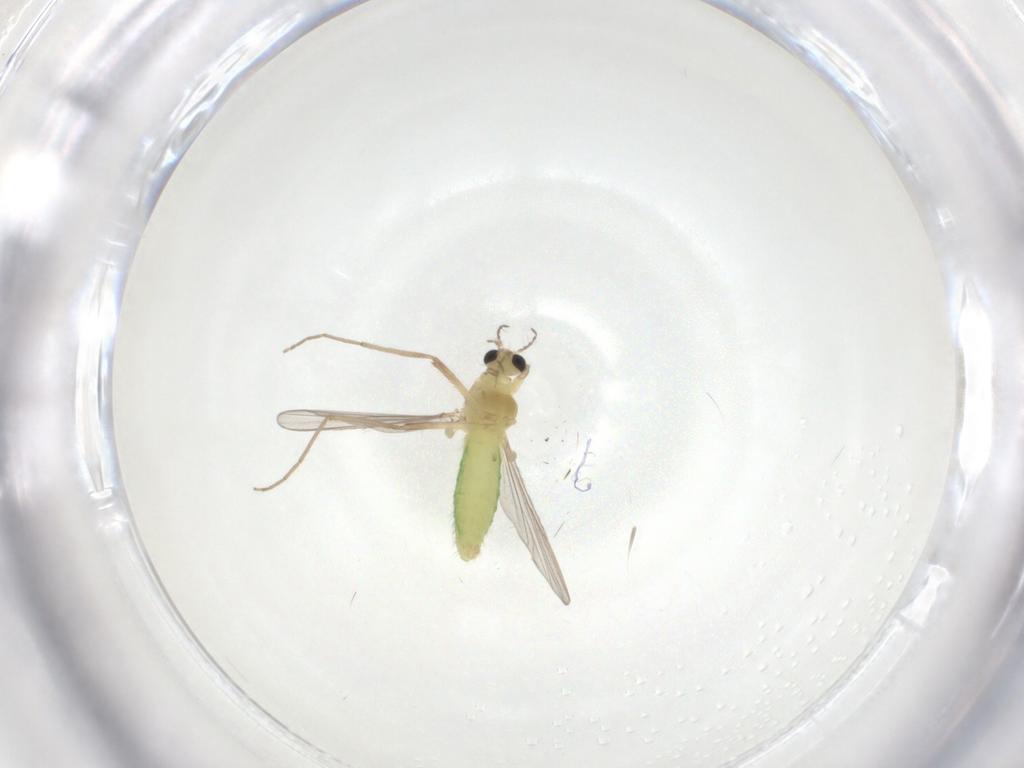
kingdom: Animalia
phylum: Arthropoda
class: Insecta
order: Diptera
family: Chironomidae
